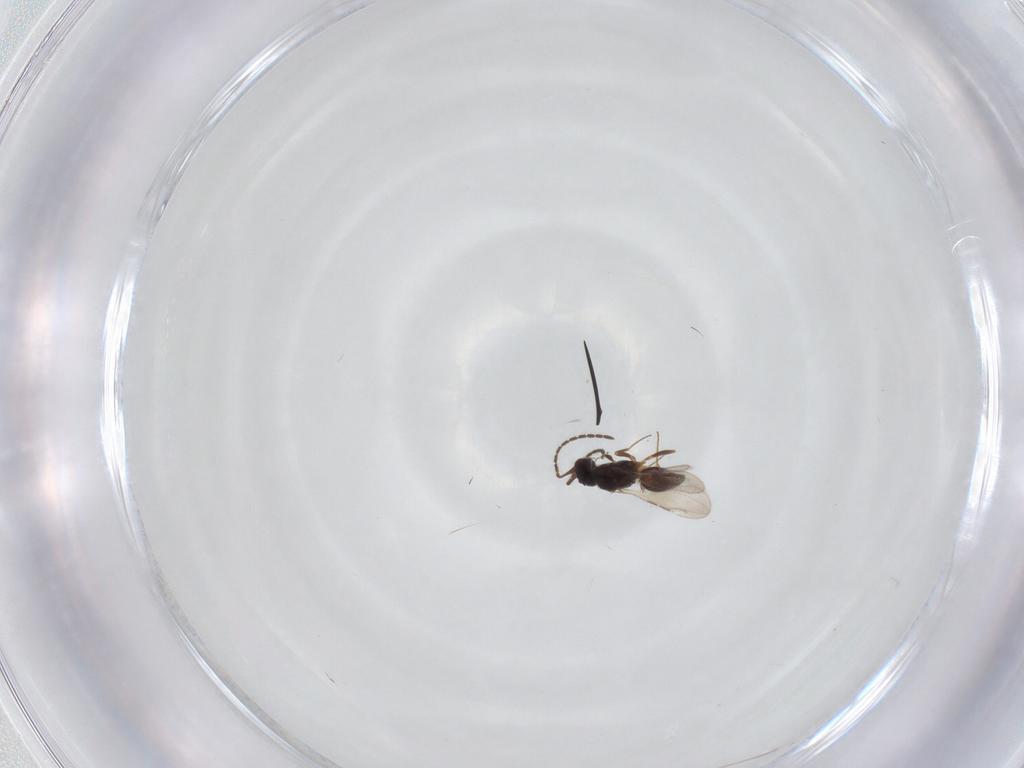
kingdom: Animalia
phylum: Arthropoda
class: Insecta
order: Hymenoptera
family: Ceraphronidae
